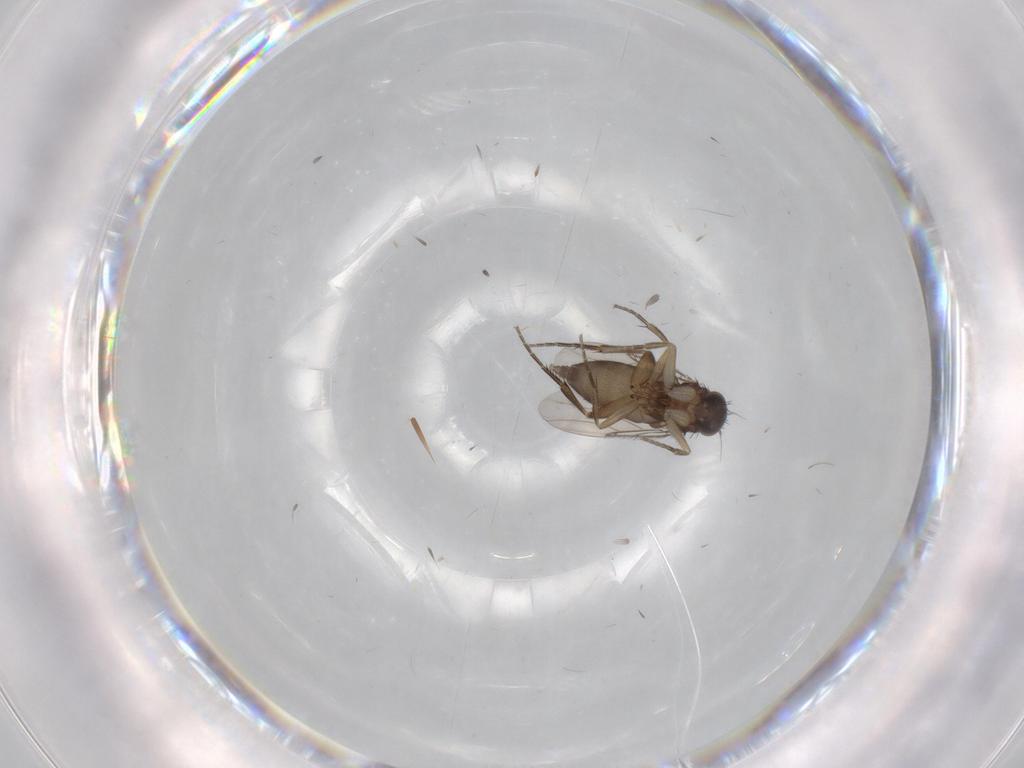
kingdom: Animalia
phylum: Arthropoda
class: Insecta
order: Diptera
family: Phoridae
